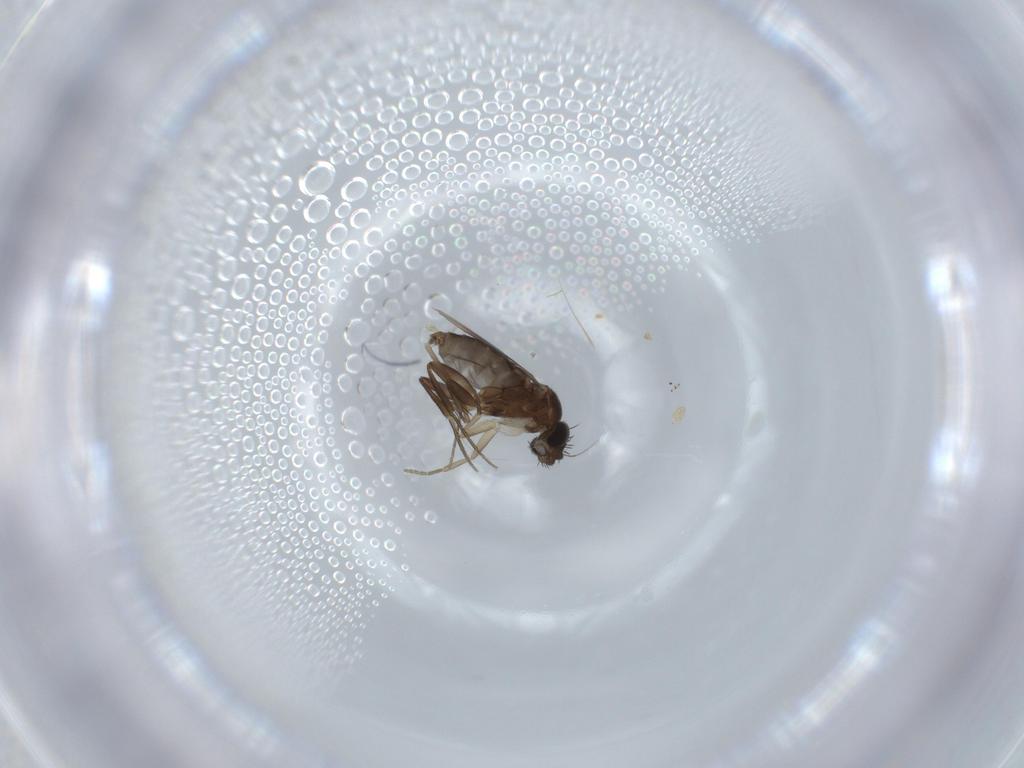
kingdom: Animalia
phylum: Arthropoda
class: Insecta
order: Diptera
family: Phoridae
